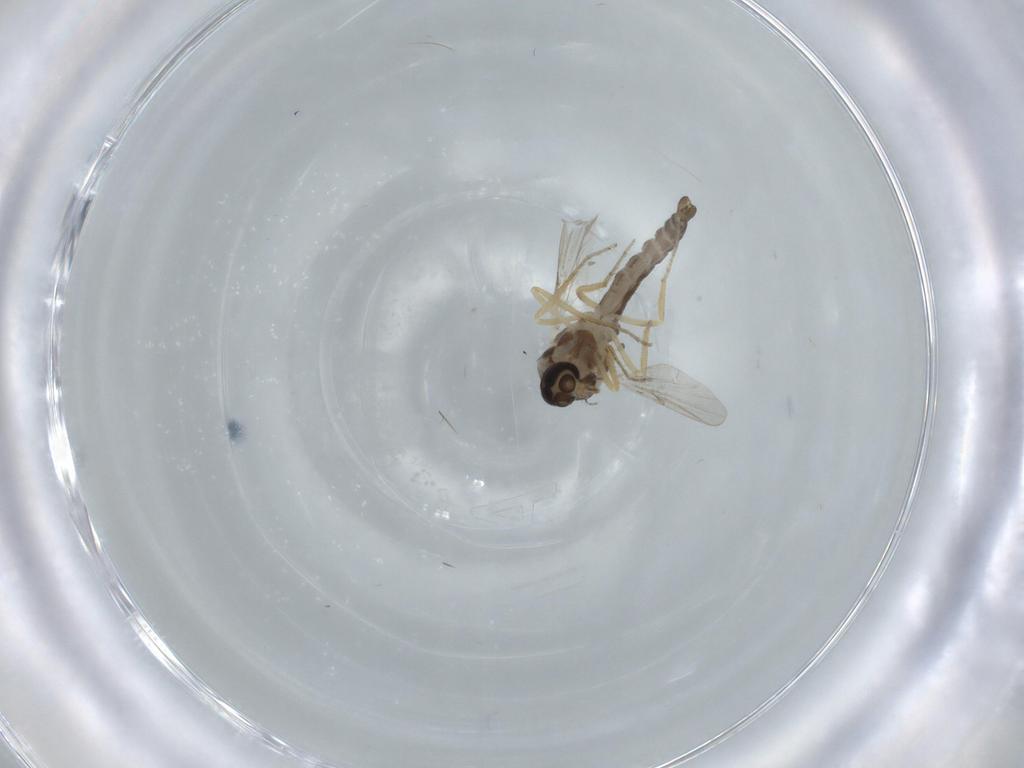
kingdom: Animalia
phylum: Arthropoda
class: Insecta
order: Diptera
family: Ceratopogonidae
